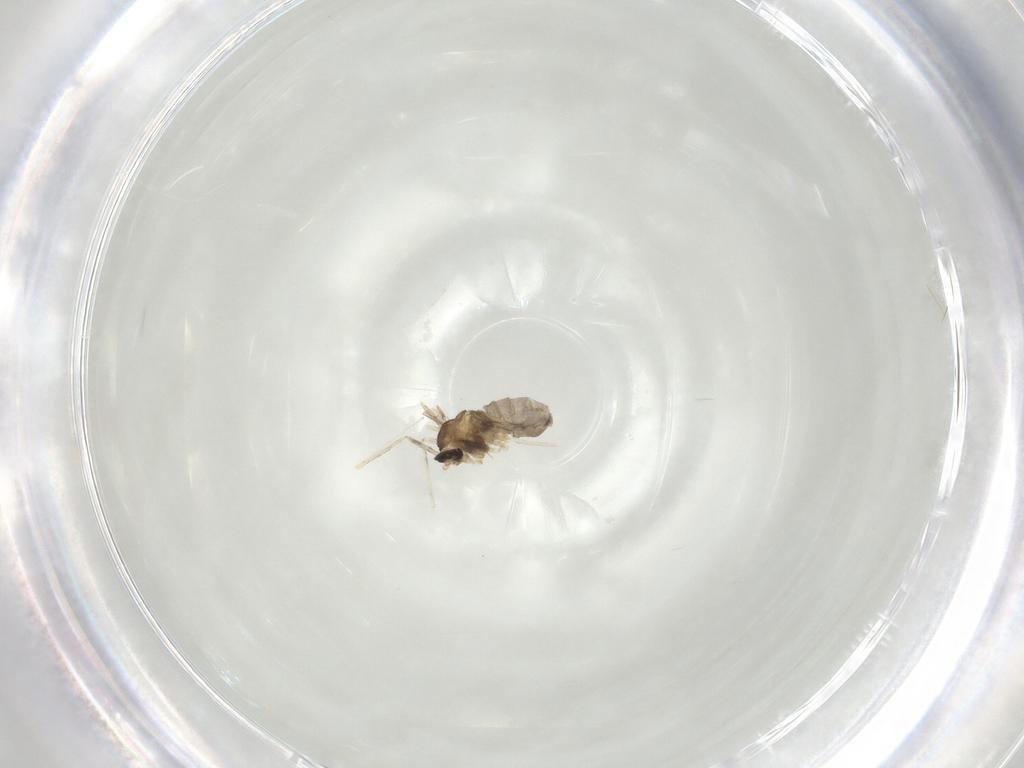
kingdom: Animalia
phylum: Arthropoda
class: Insecta
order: Diptera
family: Cecidomyiidae
